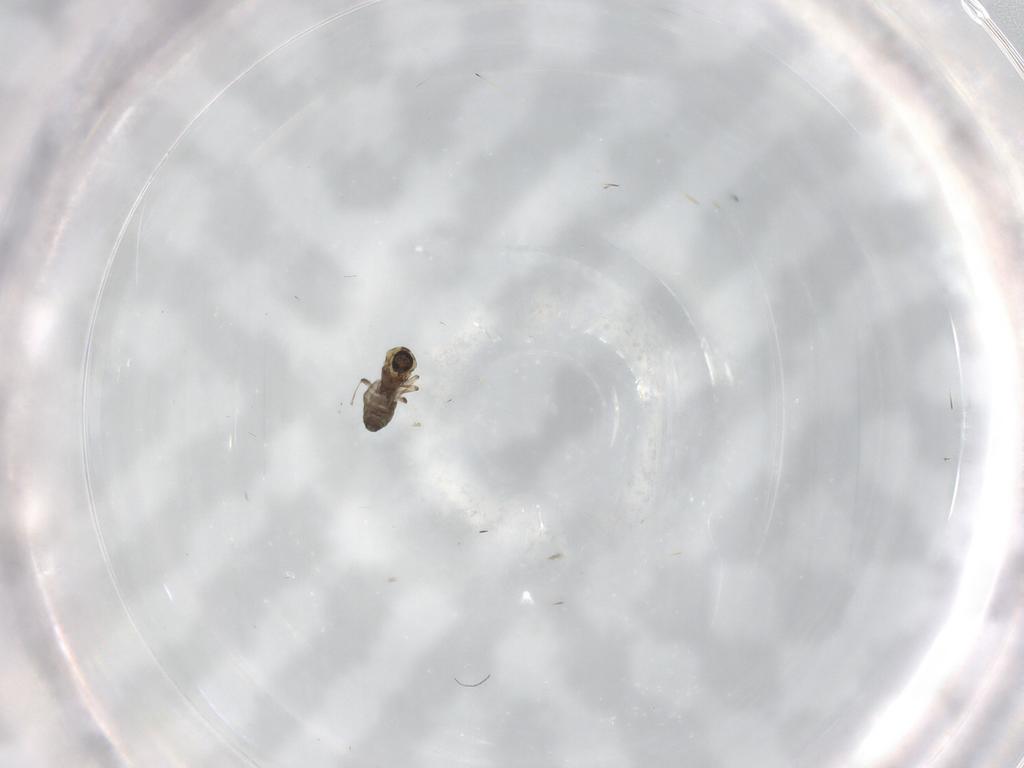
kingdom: Animalia
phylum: Arthropoda
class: Insecta
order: Diptera
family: Ceratopogonidae
